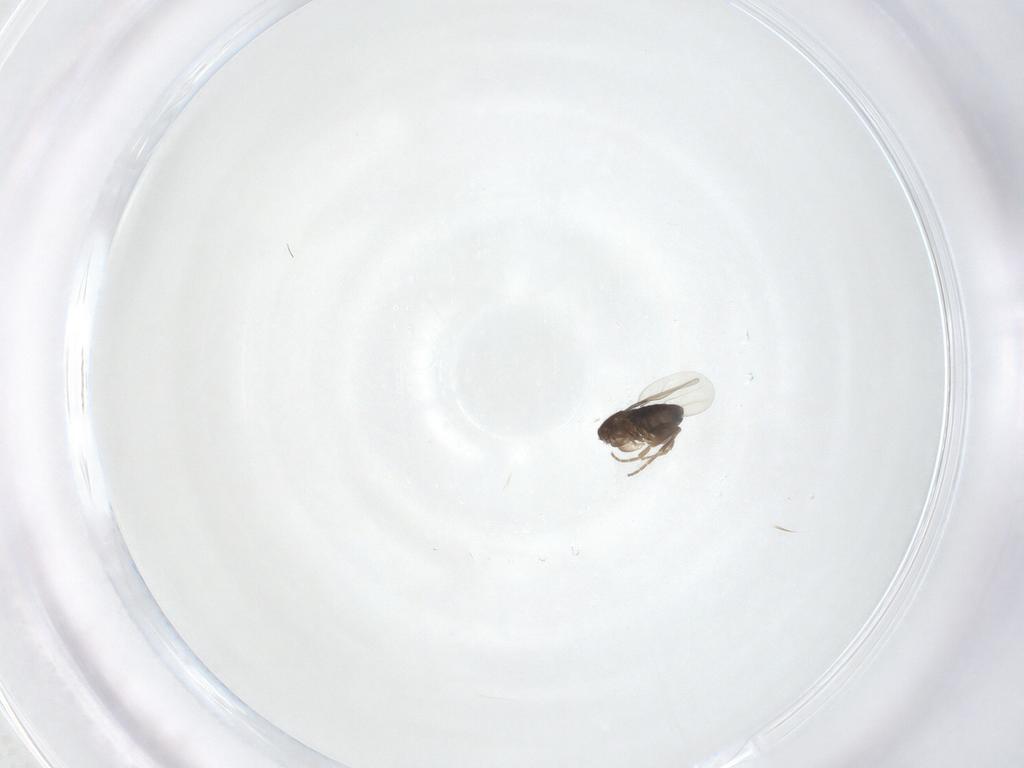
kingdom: Animalia
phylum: Arthropoda
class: Insecta
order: Diptera
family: Phoridae
